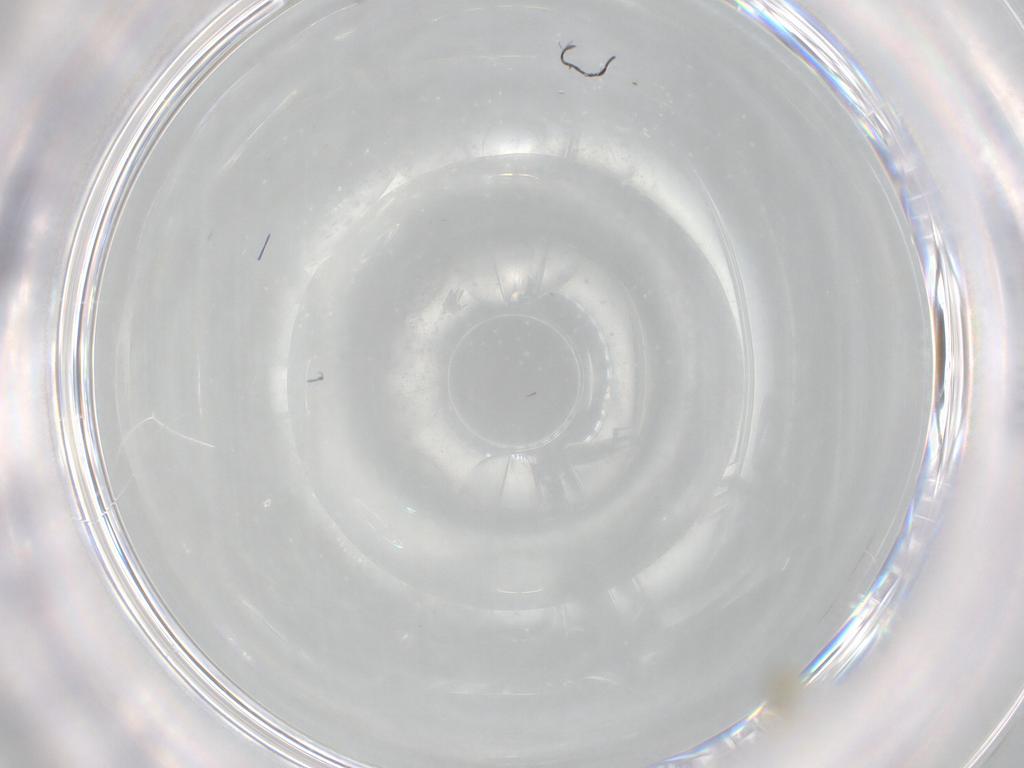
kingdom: Animalia
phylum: Arthropoda
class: Insecta
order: Diptera
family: Cecidomyiidae
